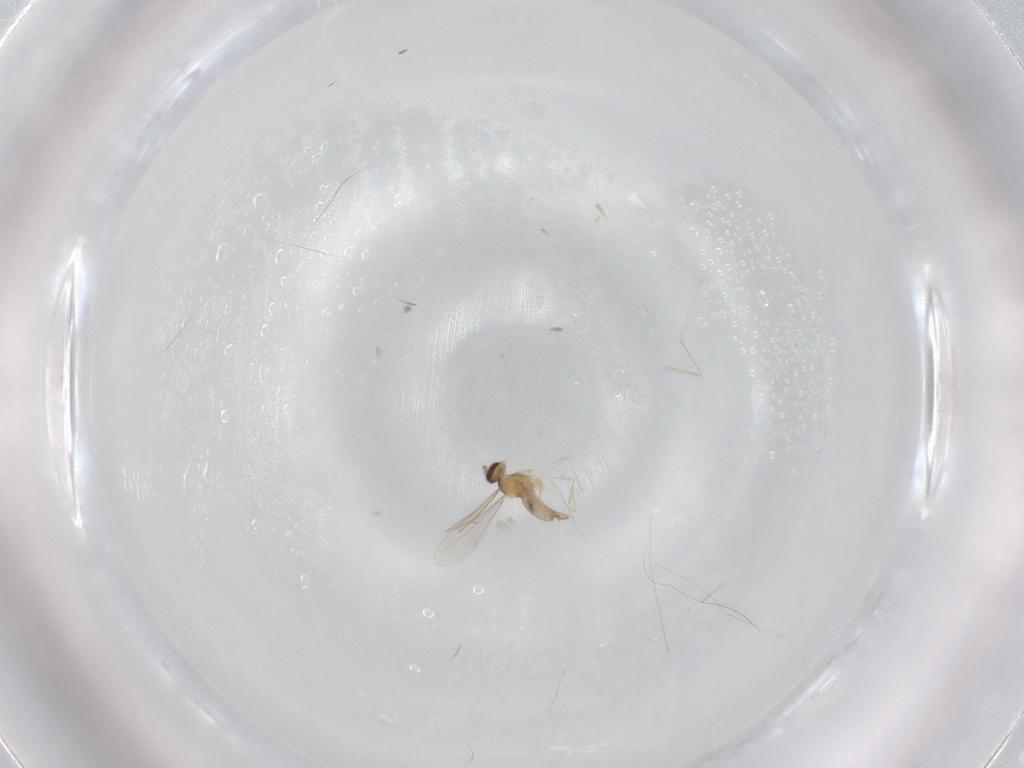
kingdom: Animalia
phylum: Arthropoda
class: Insecta
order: Diptera
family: Cecidomyiidae
